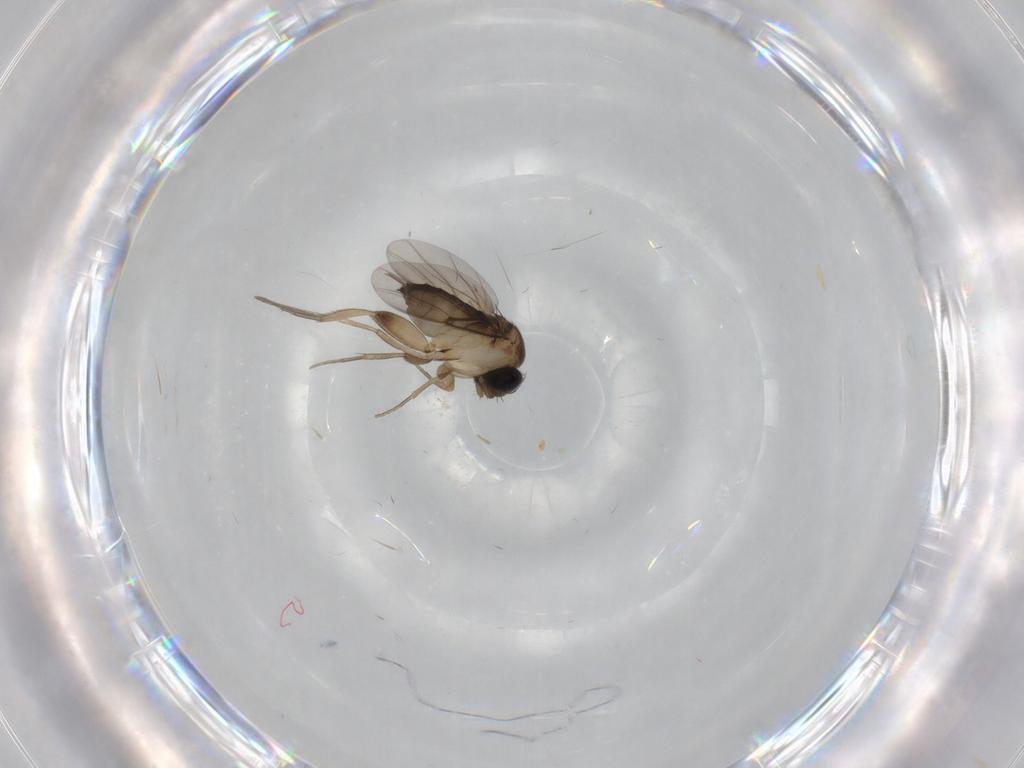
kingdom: Animalia
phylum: Arthropoda
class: Insecta
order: Diptera
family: Phoridae
